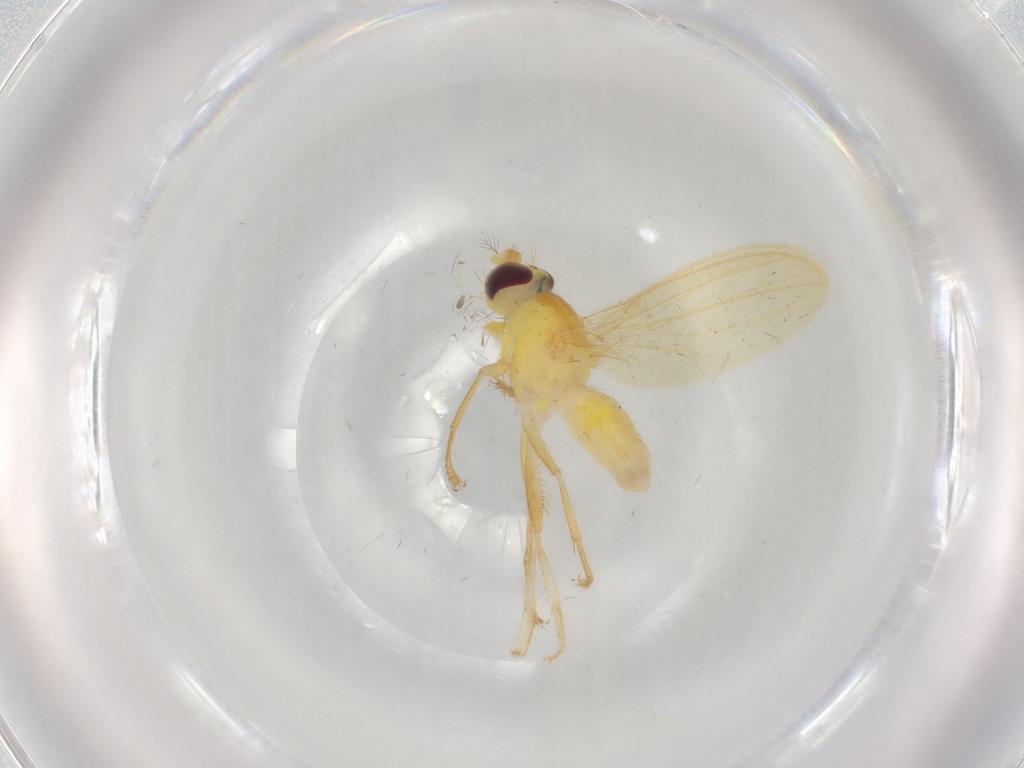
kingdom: Animalia
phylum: Arthropoda
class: Insecta
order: Diptera
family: Periscelididae
